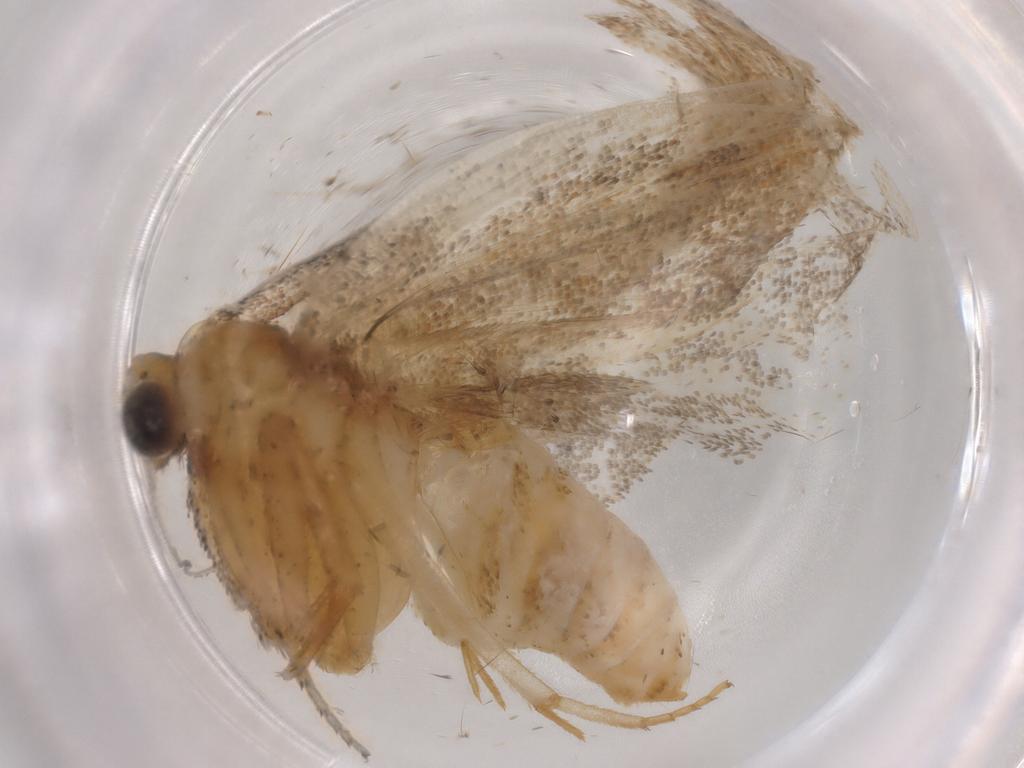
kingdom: Animalia
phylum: Arthropoda
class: Insecta
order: Lepidoptera
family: Tortricidae
